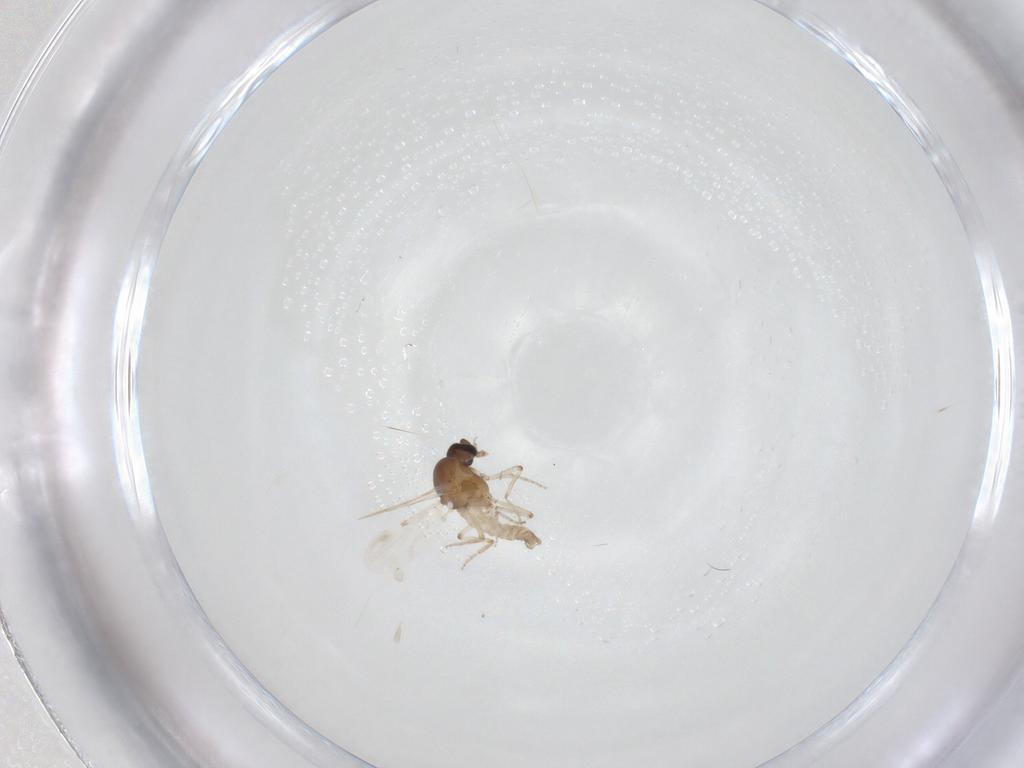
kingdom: Animalia
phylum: Arthropoda
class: Insecta
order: Diptera
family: Ceratopogonidae
